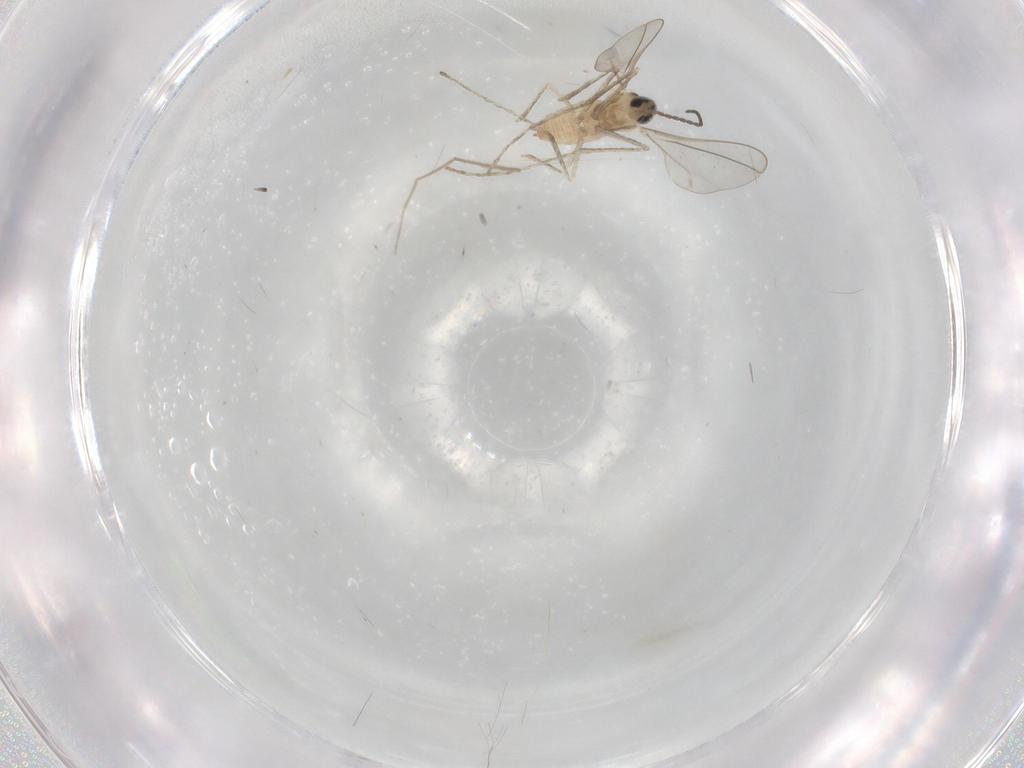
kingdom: Animalia
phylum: Arthropoda
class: Insecta
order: Diptera
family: Cecidomyiidae
